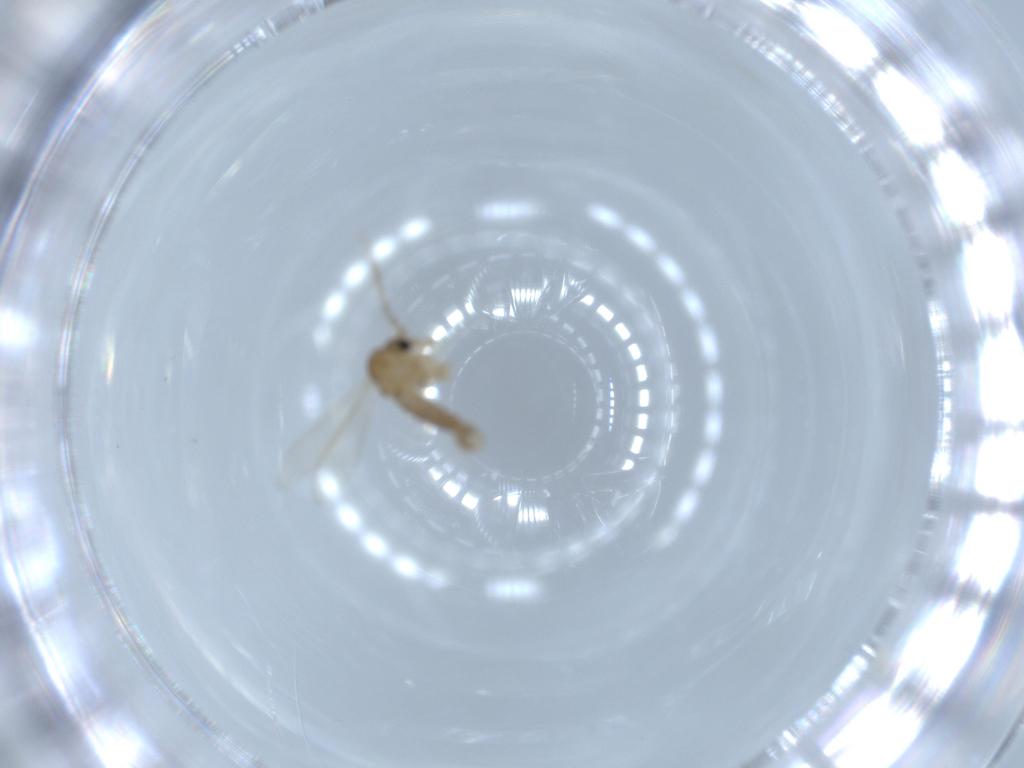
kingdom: Animalia
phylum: Arthropoda
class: Insecta
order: Diptera
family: Psychodidae
